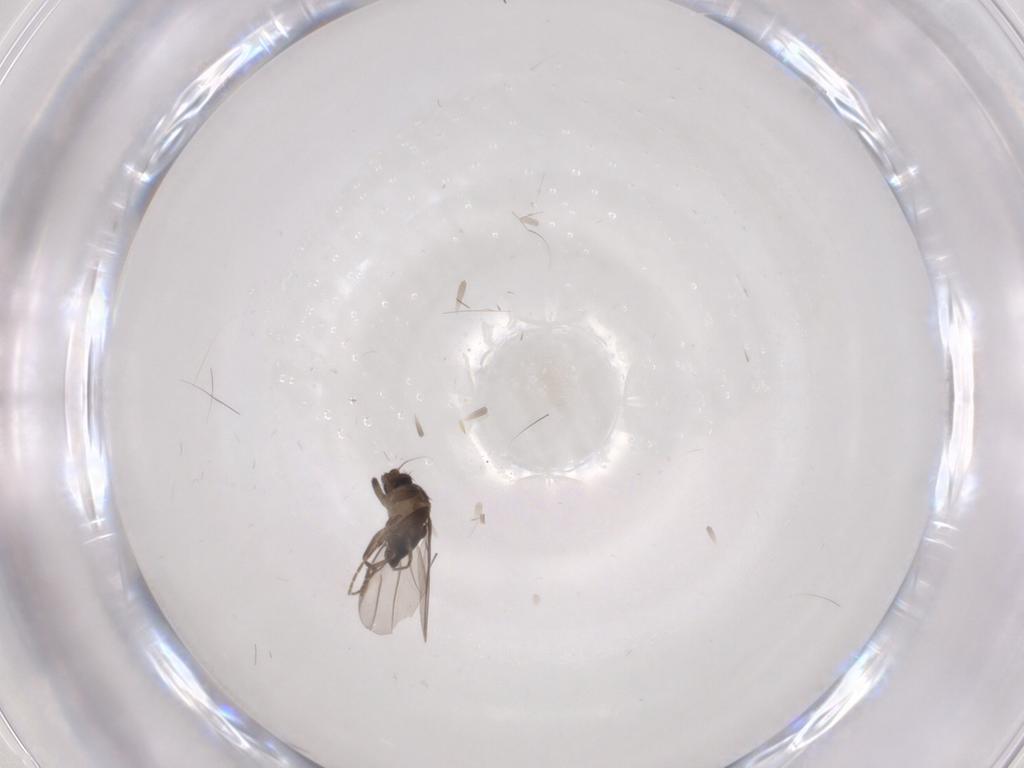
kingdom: Animalia
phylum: Arthropoda
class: Insecta
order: Diptera
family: Phoridae
